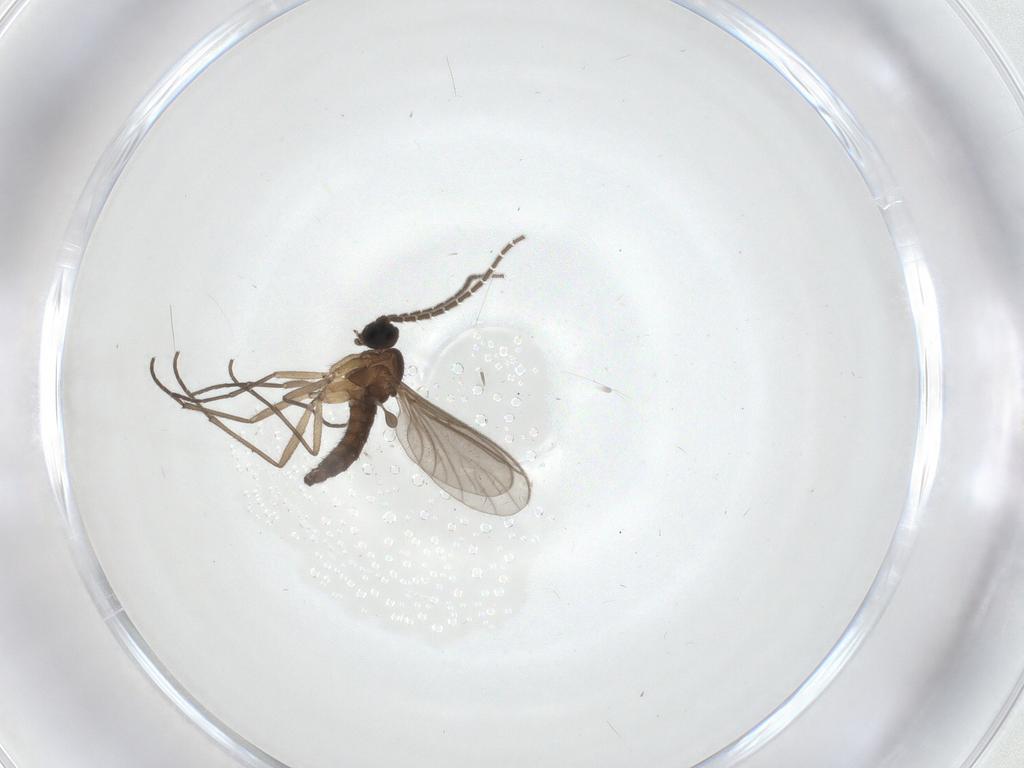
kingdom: Animalia
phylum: Arthropoda
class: Insecta
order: Diptera
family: Sciaridae
